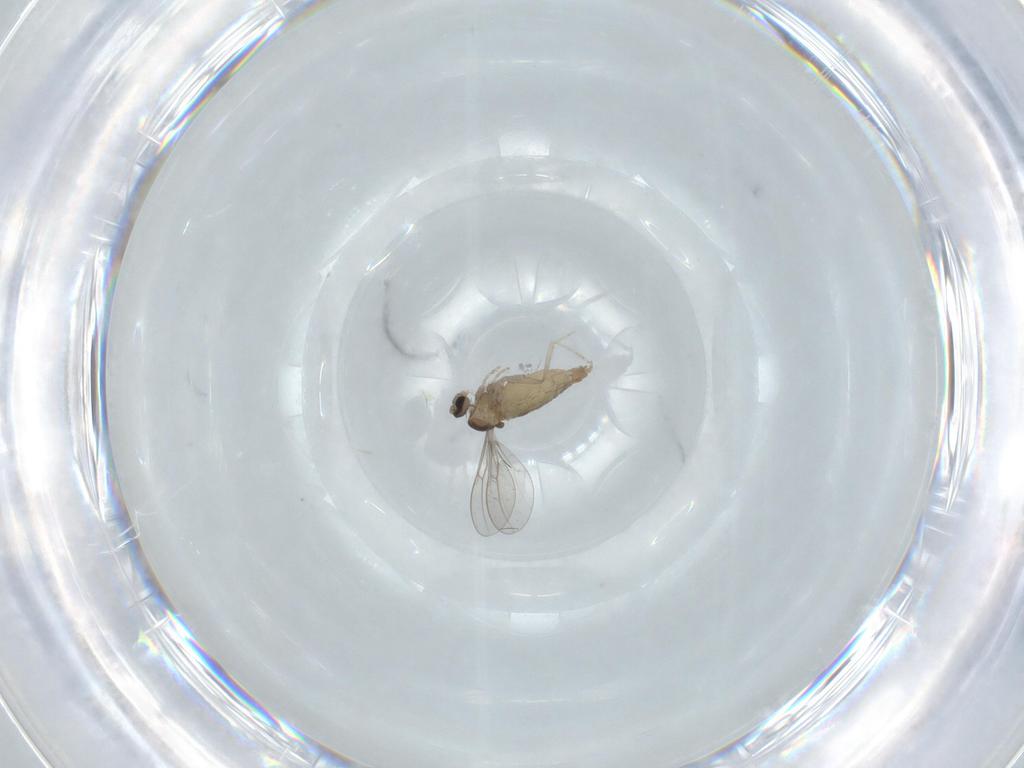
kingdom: Animalia
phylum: Arthropoda
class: Insecta
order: Diptera
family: Cecidomyiidae
